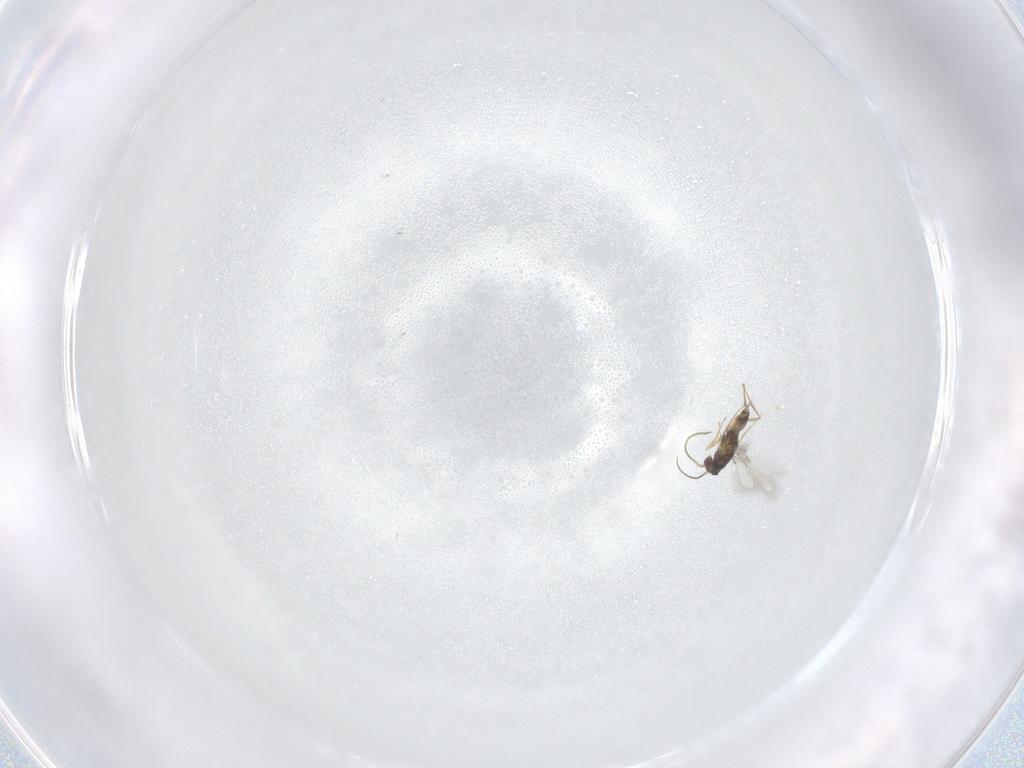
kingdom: Animalia
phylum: Arthropoda
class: Insecta
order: Hymenoptera
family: Mymaridae
